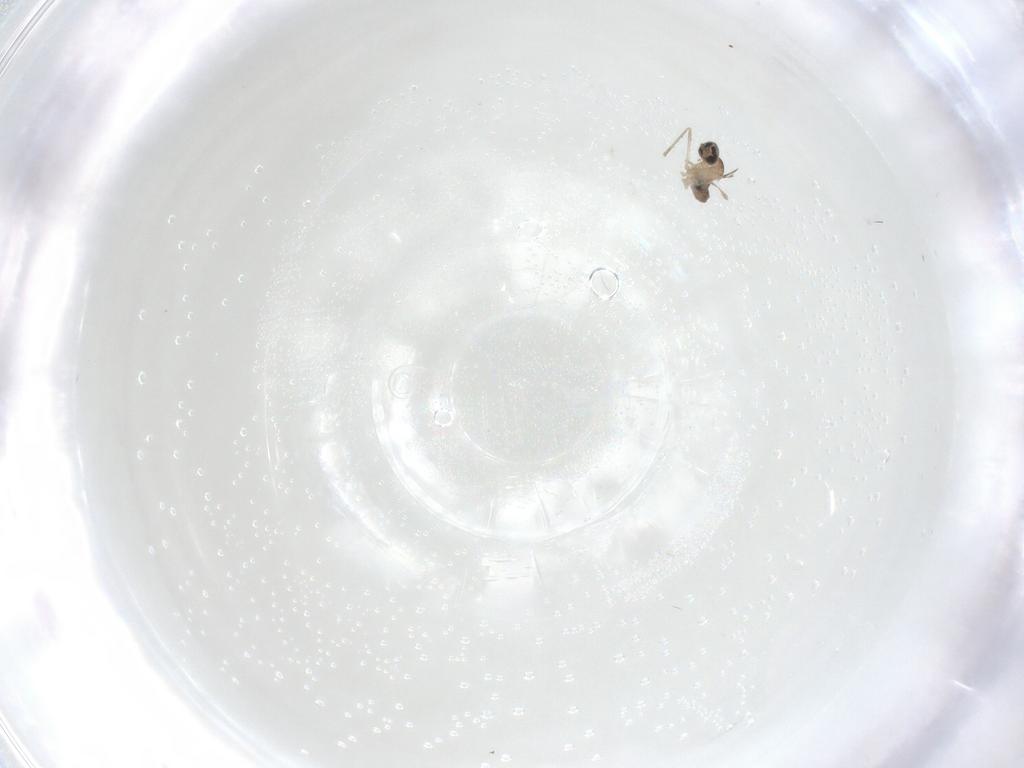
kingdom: Animalia
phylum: Arthropoda
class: Insecta
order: Diptera
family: Cecidomyiidae
